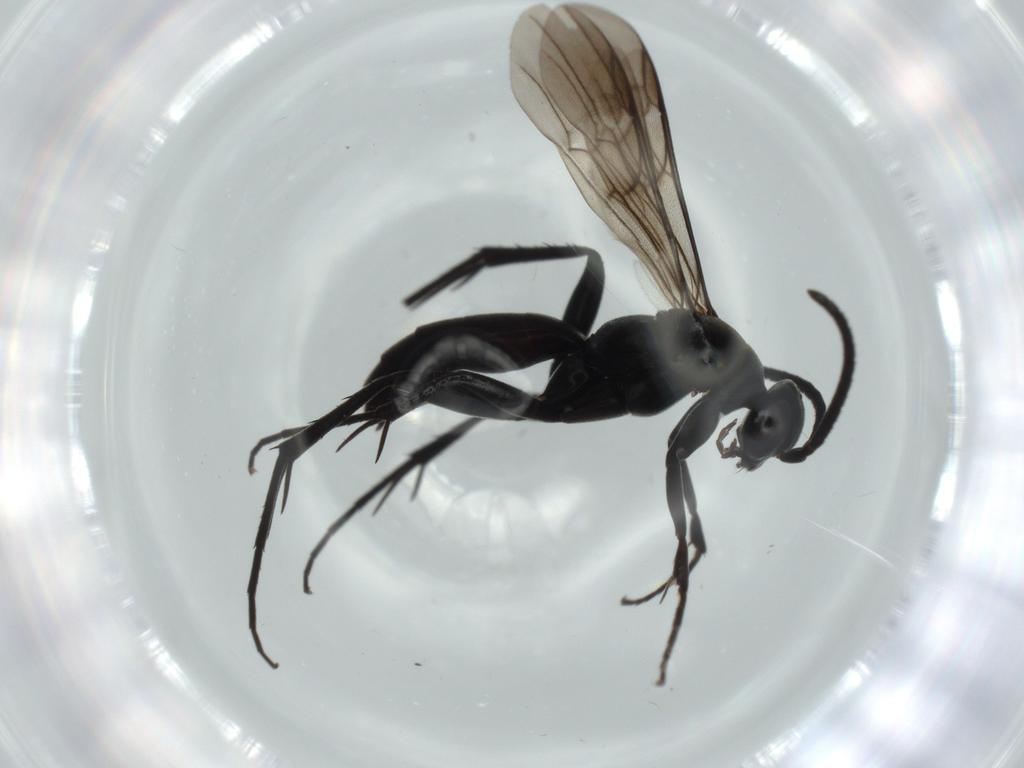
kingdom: Animalia
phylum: Arthropoda
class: Insecta
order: Hymenoptera
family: Pompilidae
